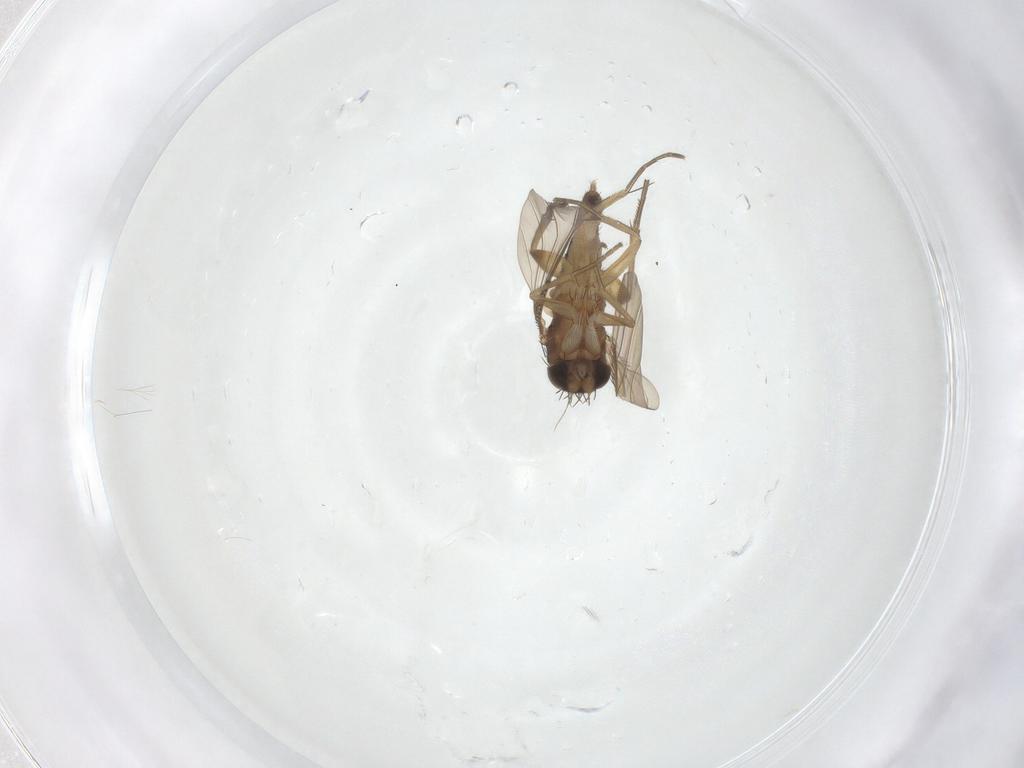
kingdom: Animalia
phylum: Arthropoda
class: Insecta
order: Diptera
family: Phoridae
